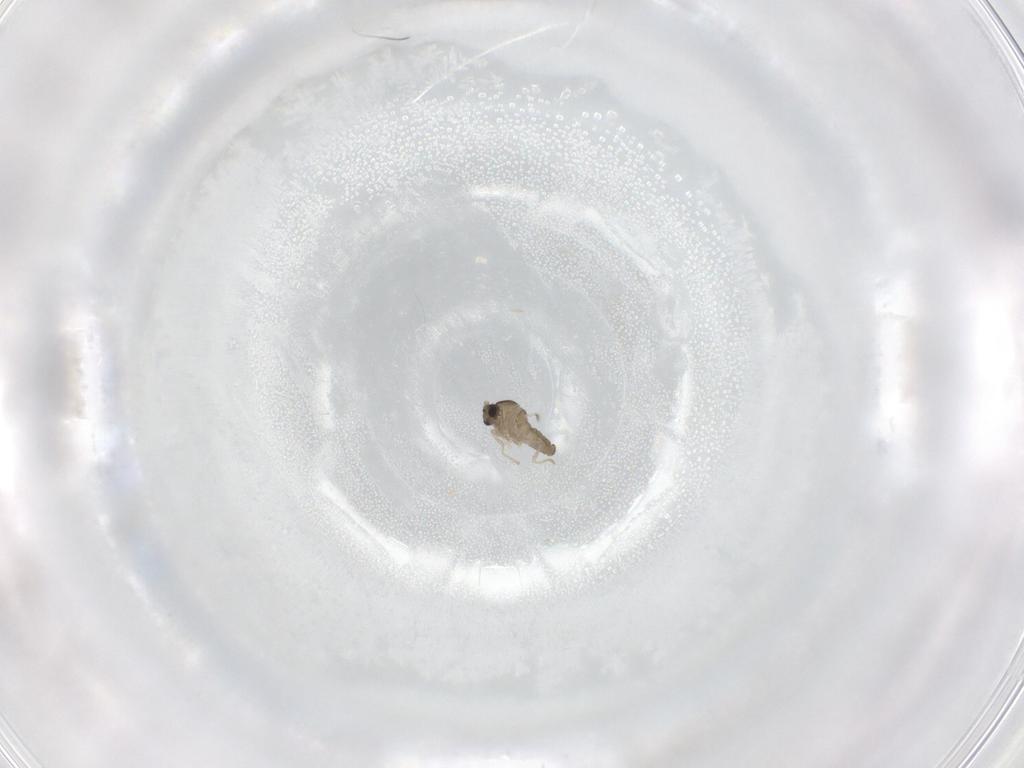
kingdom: Animalia
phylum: Arthropoda
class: Insecta
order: Diptera
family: Cecidomyiidae
